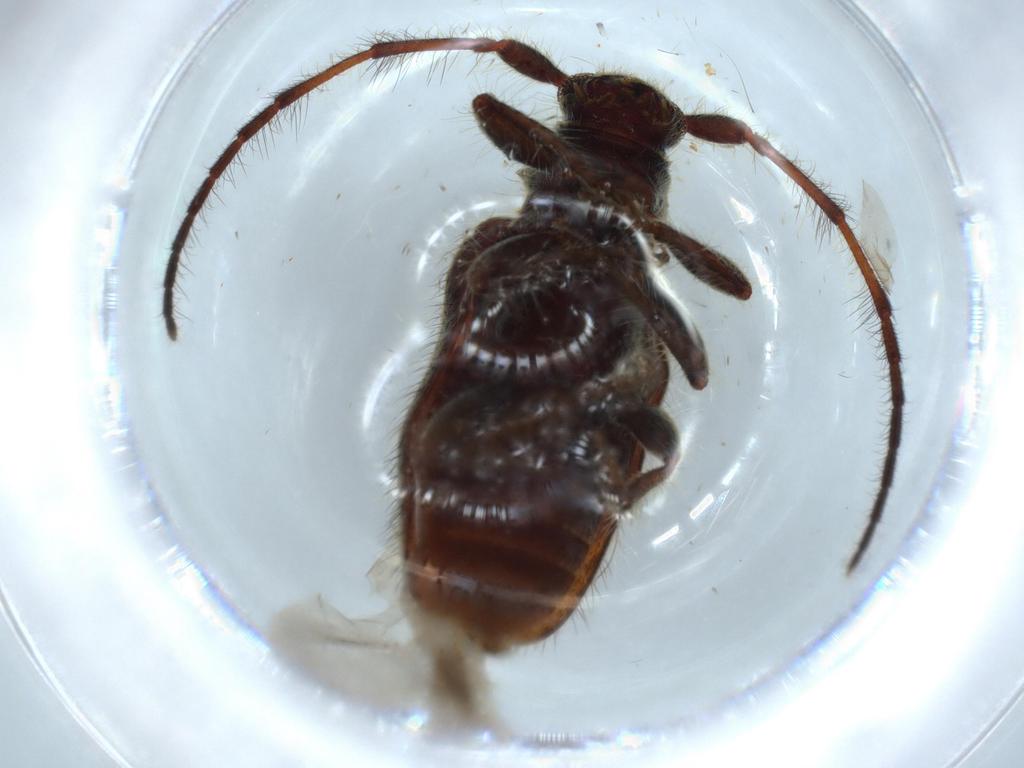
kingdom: Animalia
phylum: Arthropoda
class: Insecta
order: Coleoptera
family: Cerambycidae
